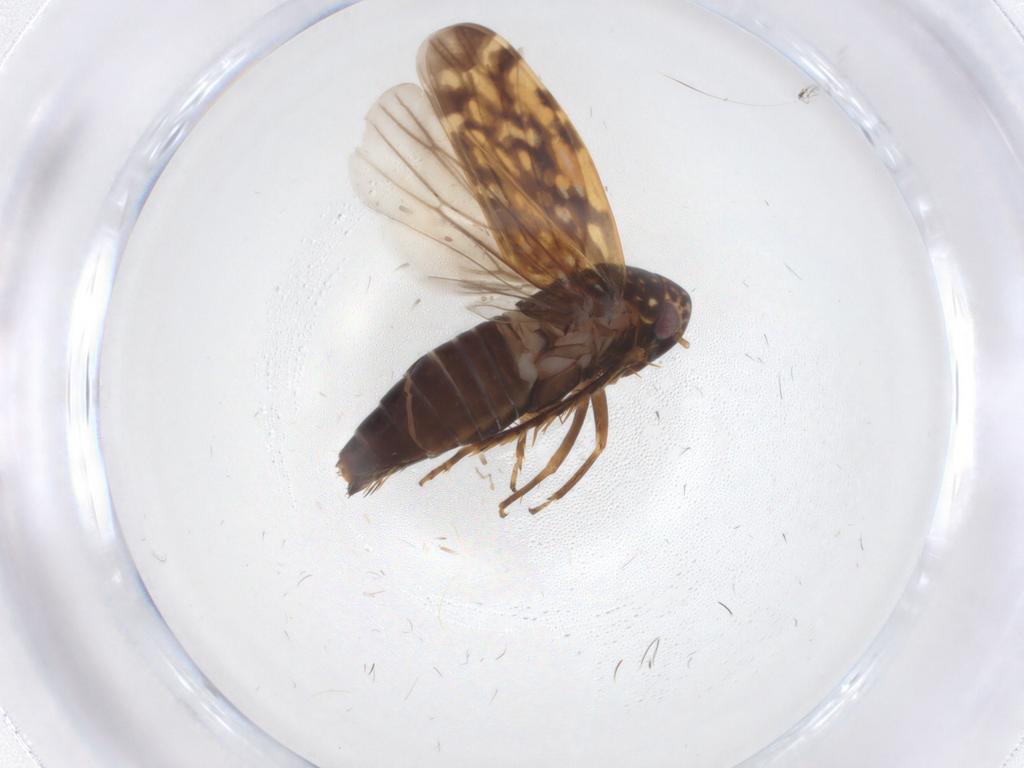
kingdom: Animalia
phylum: Arthropoda
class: Insecta
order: Hemiptera
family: Cicadellidae
